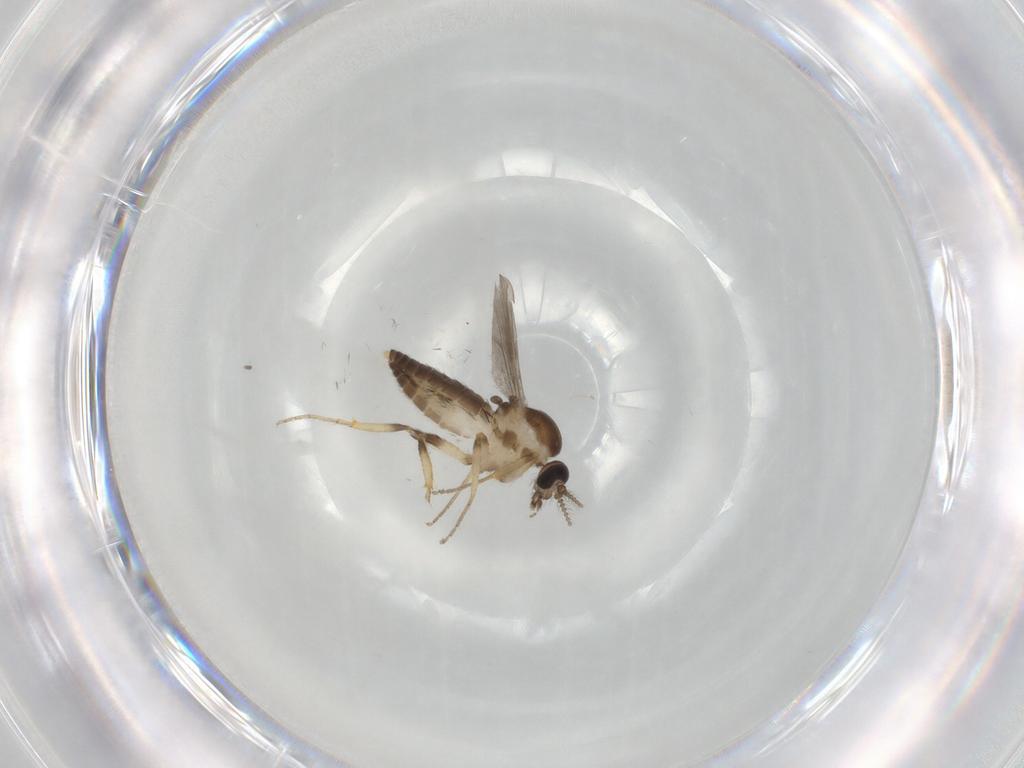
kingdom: Animalia
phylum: Arthropoda
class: Insecta
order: Diptera
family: Ceratopogonidae
